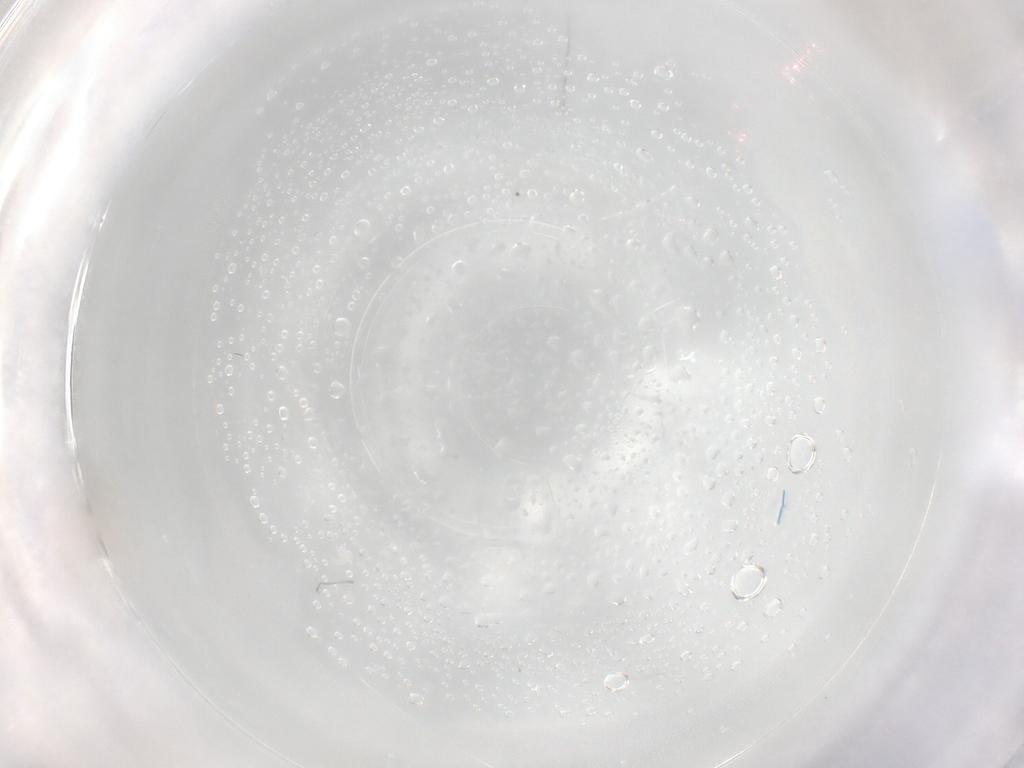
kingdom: Animalia
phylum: Arthropoda
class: Insecta
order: Diptera
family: Cecidomyiidae
